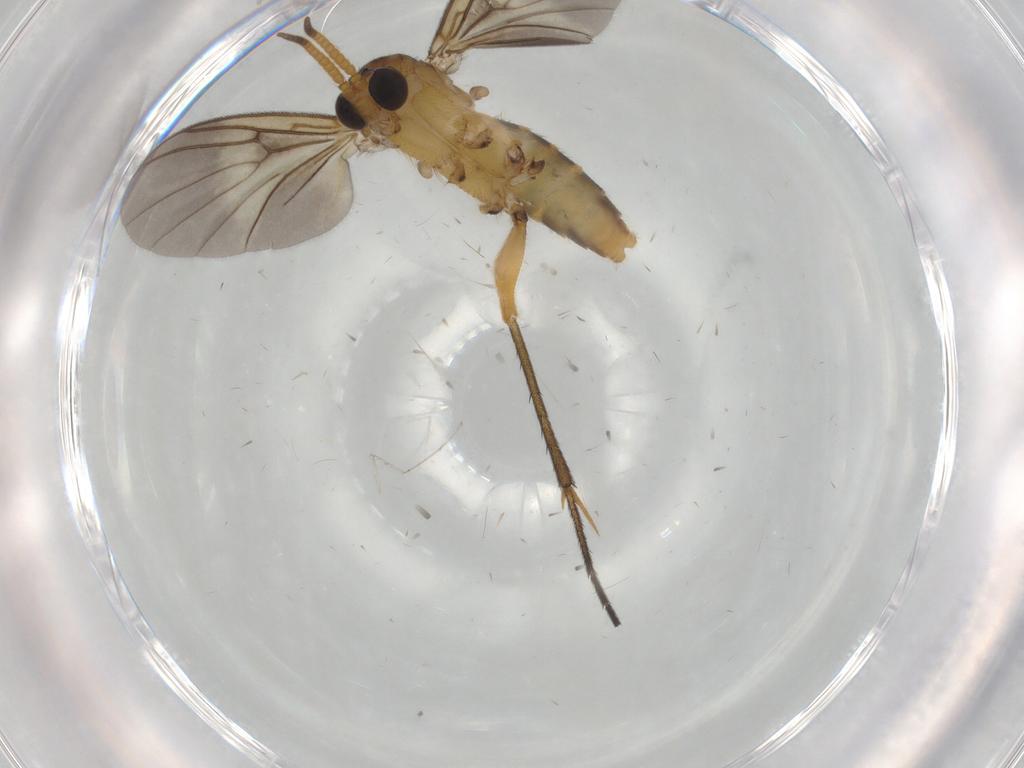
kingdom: Animalia
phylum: Arthropoda
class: Insecta
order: Diptera
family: Cecidomyiidae
